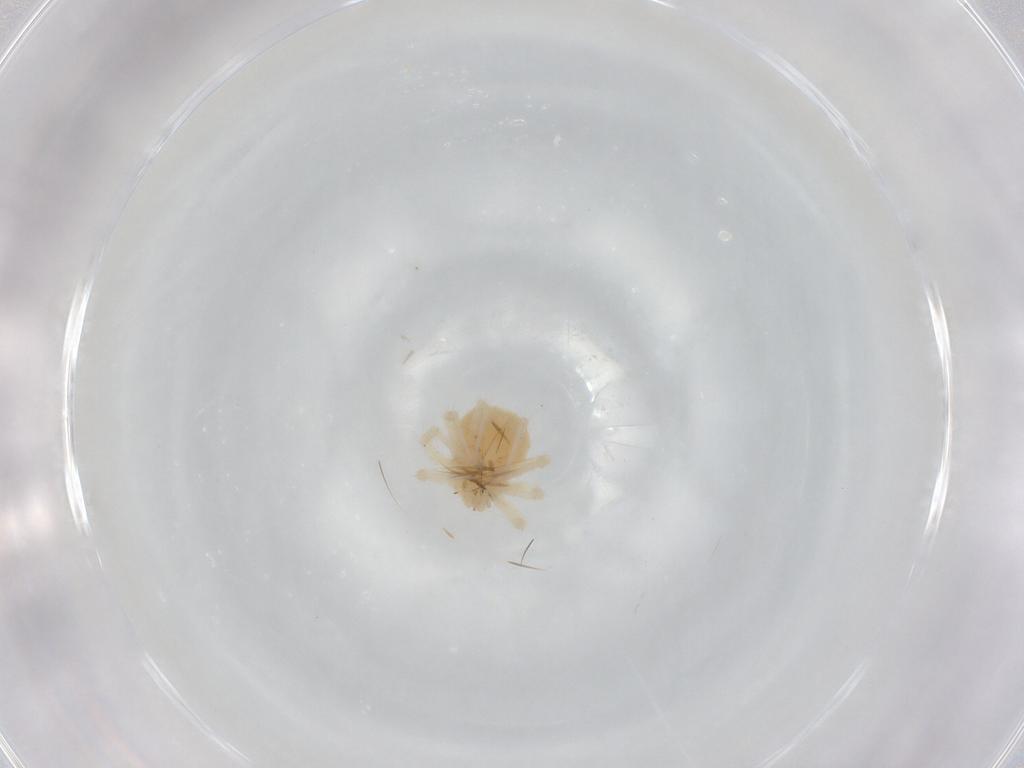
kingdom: Animalia
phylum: Arthropoda
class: Arachnida
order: Trombidiformes
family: Anystidae
